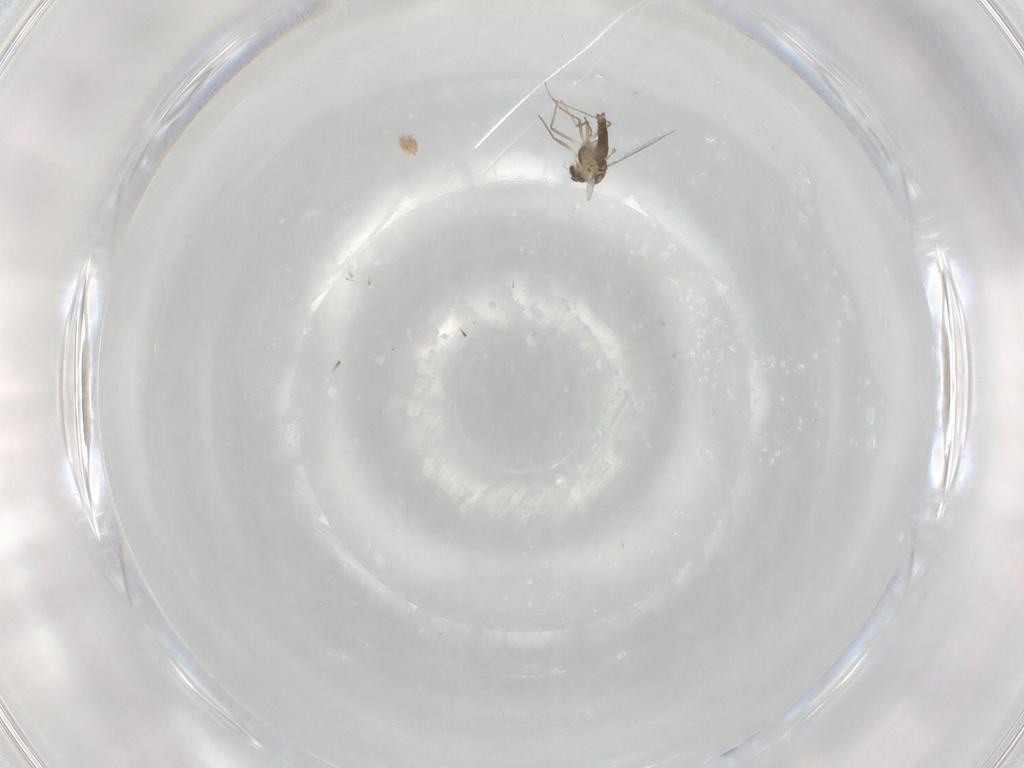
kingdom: Animalia
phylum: Arthropoda
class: Insecta
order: Diptera
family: Chironomidae
